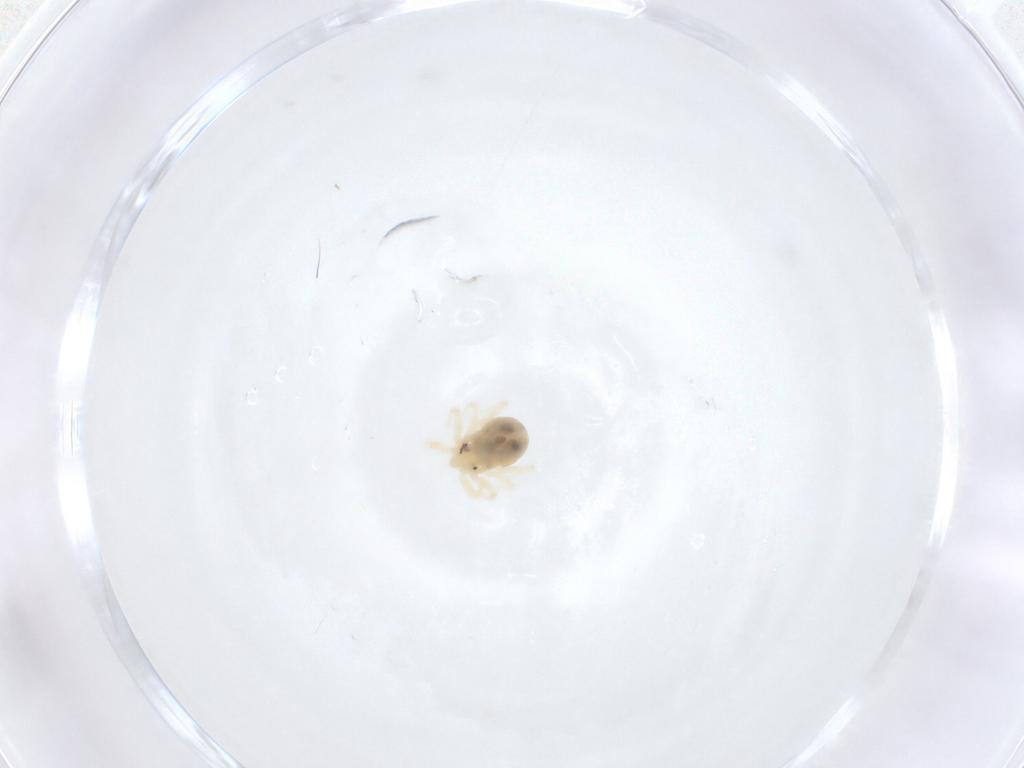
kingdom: Animalia
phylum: Arthropoda
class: Arachnida
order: Trombidiformes
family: Anystidae
